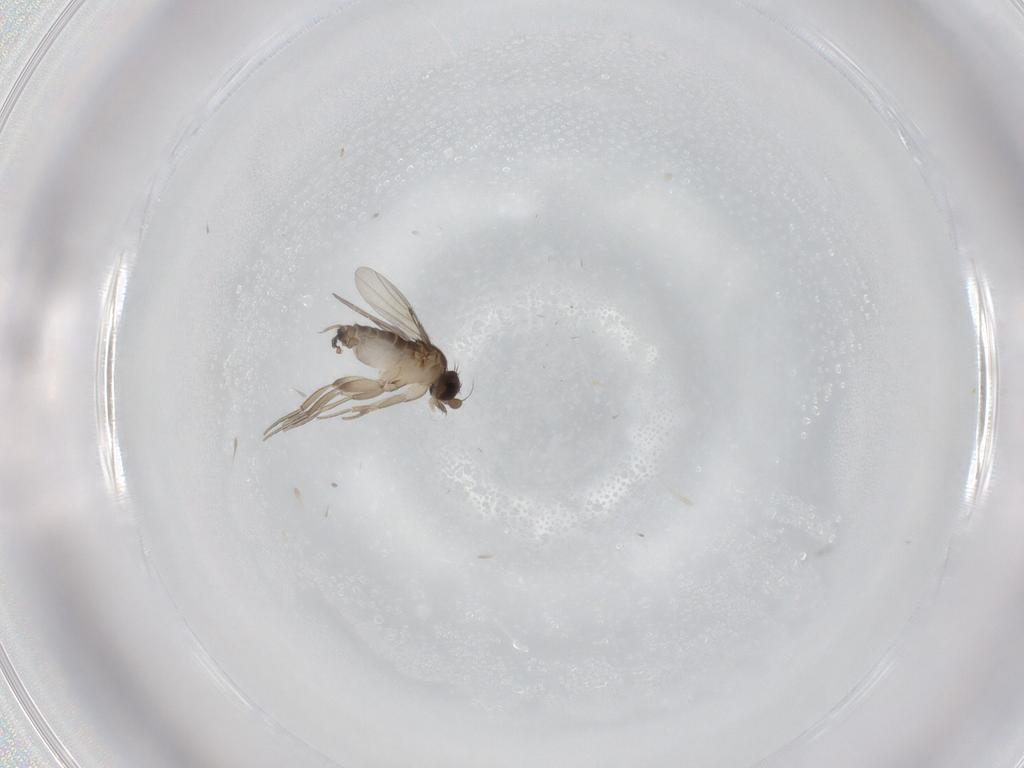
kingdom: Animalia
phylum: Arthropoda
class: Insecta
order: Diptera
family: Phoridae
